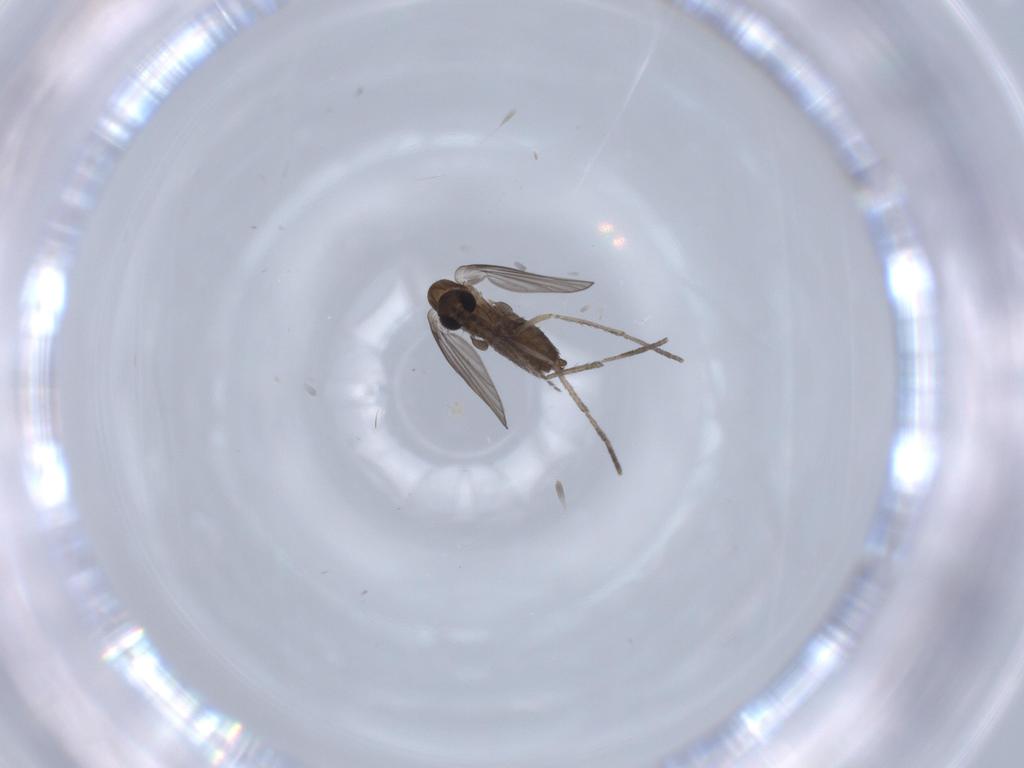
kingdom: Animalia
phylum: Arthropoda
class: Insecta
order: Diptera
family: Psychodidae
